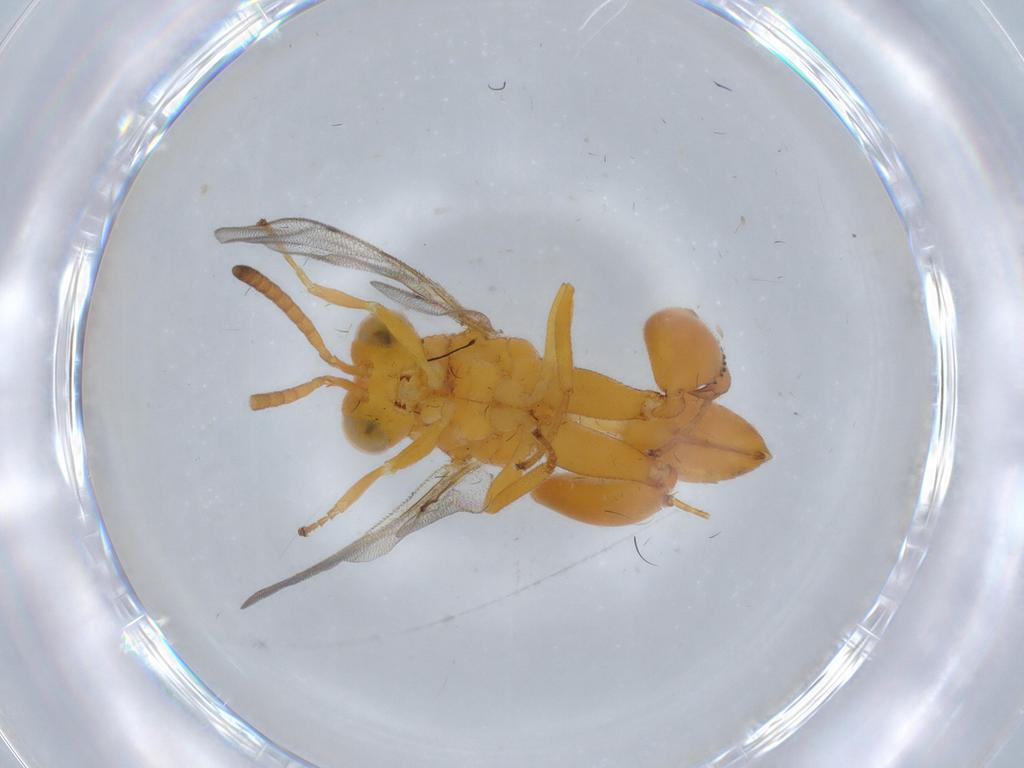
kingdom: Animalia
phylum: Arthropoda
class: Insecta
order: Hymenoptera
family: Chalcididae
